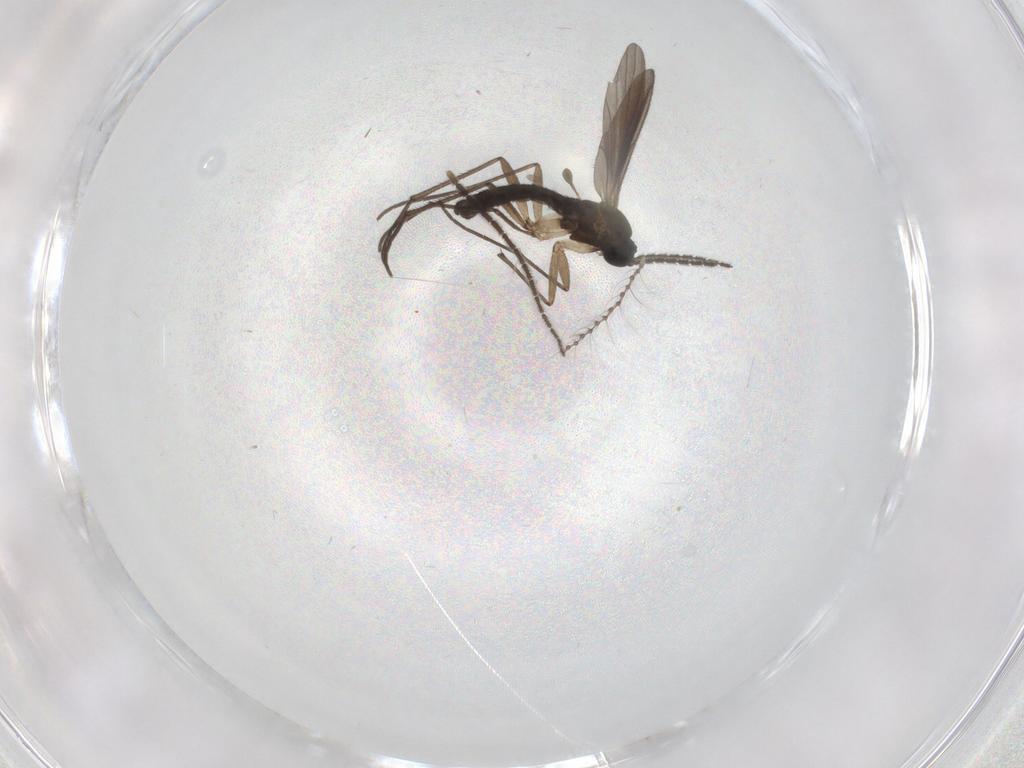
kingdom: Animalia
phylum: Arthropoda
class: Insecta
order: Diptera
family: Sciaridae
